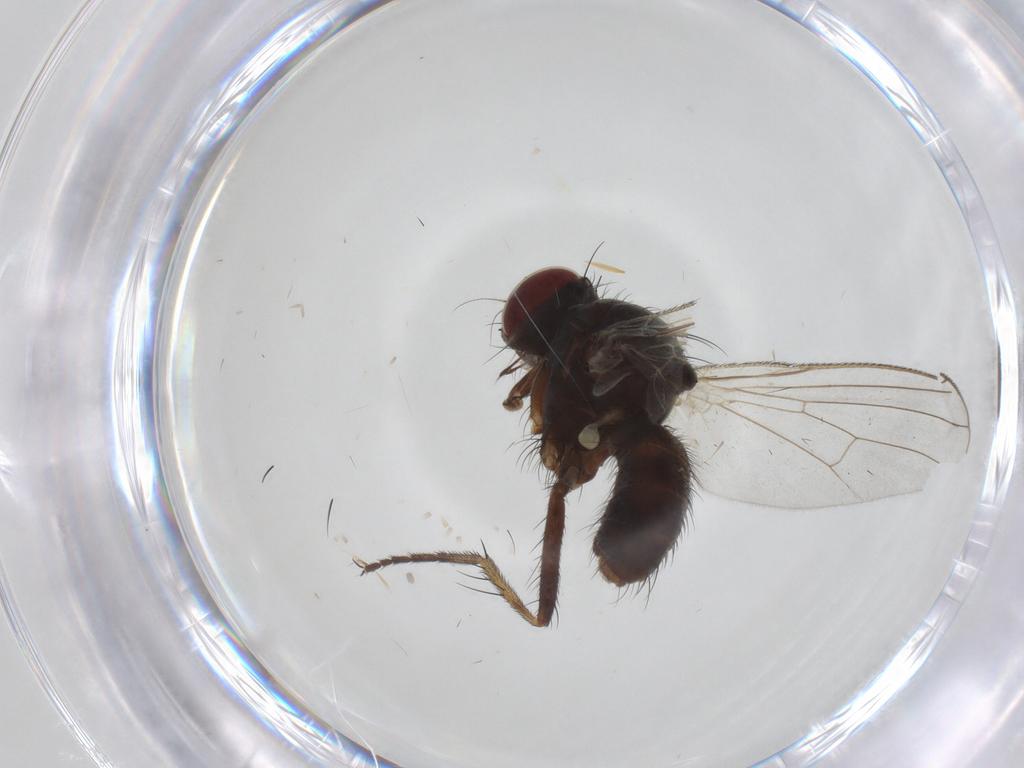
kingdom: Animalia
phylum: Arthropoda
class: Insecta
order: Diptera
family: Muscidae
